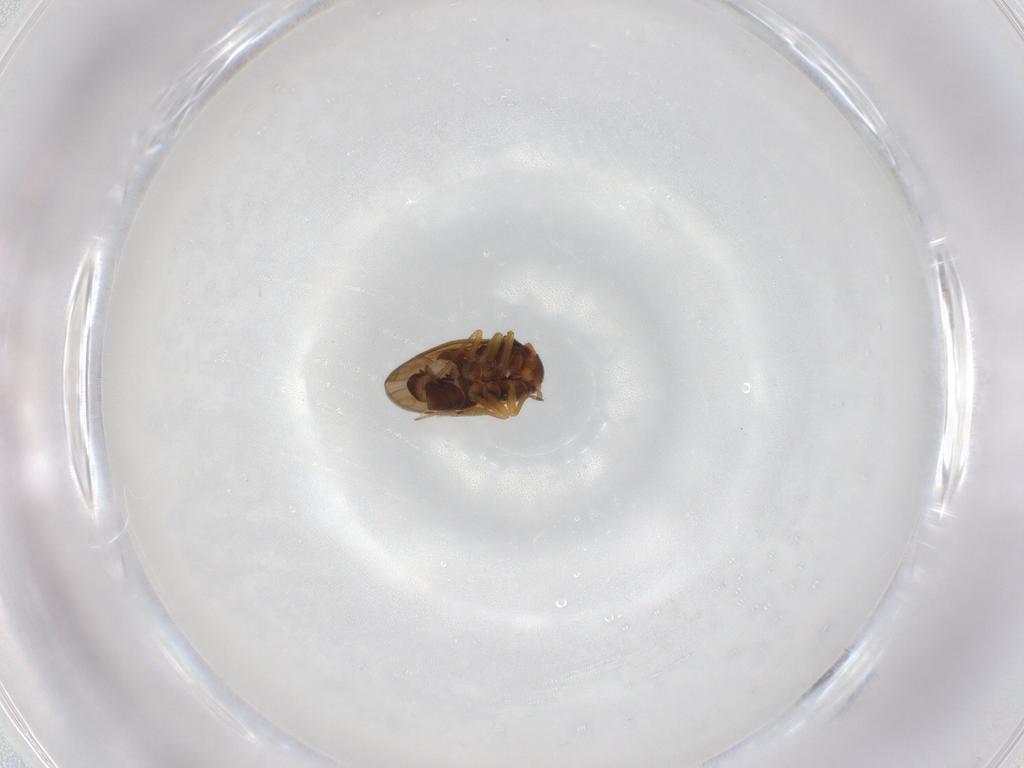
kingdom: Animalia
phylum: Arthropoda
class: Insecta
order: Hemiptera
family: Schizopteridae
